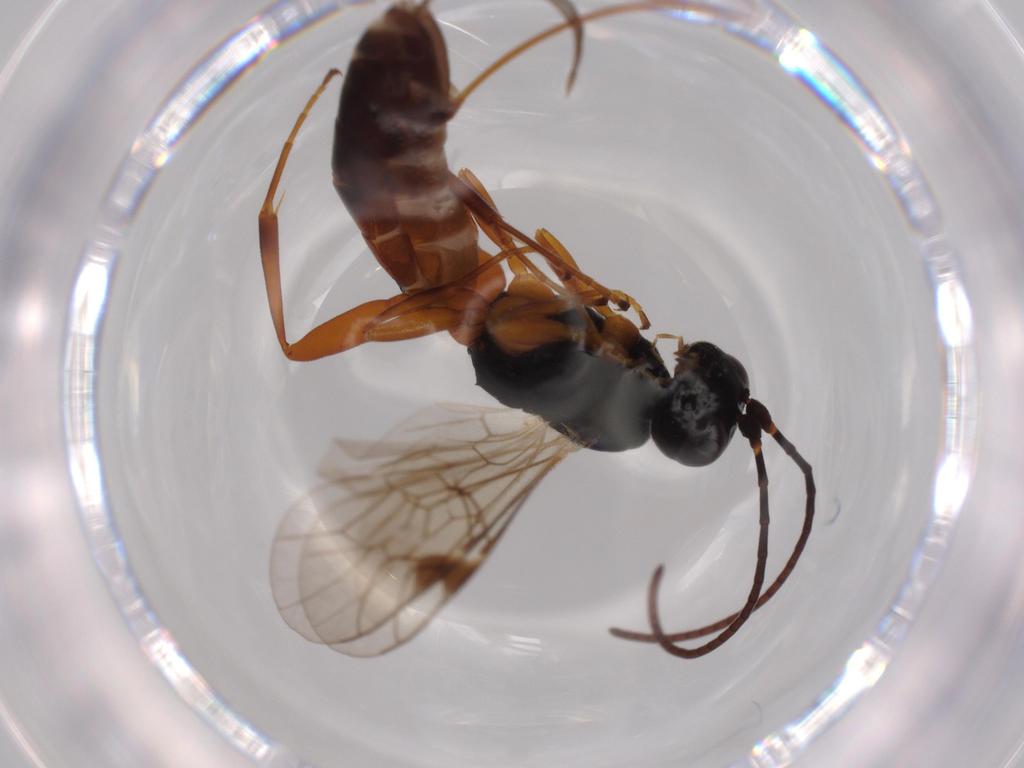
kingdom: Animalia
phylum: Arthropoda
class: Insecta
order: Hymenoptera
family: Ichneumonidae
